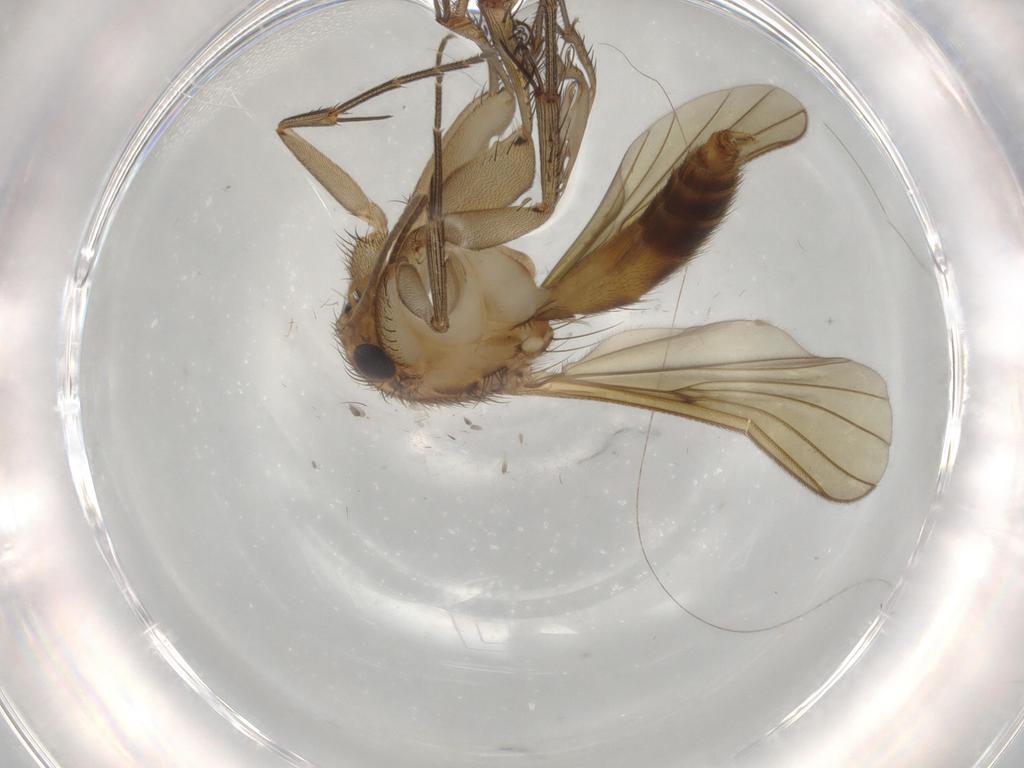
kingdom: Animalia
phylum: Arthropoda
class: Insecta
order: Diptera
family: Mycetophilidae
